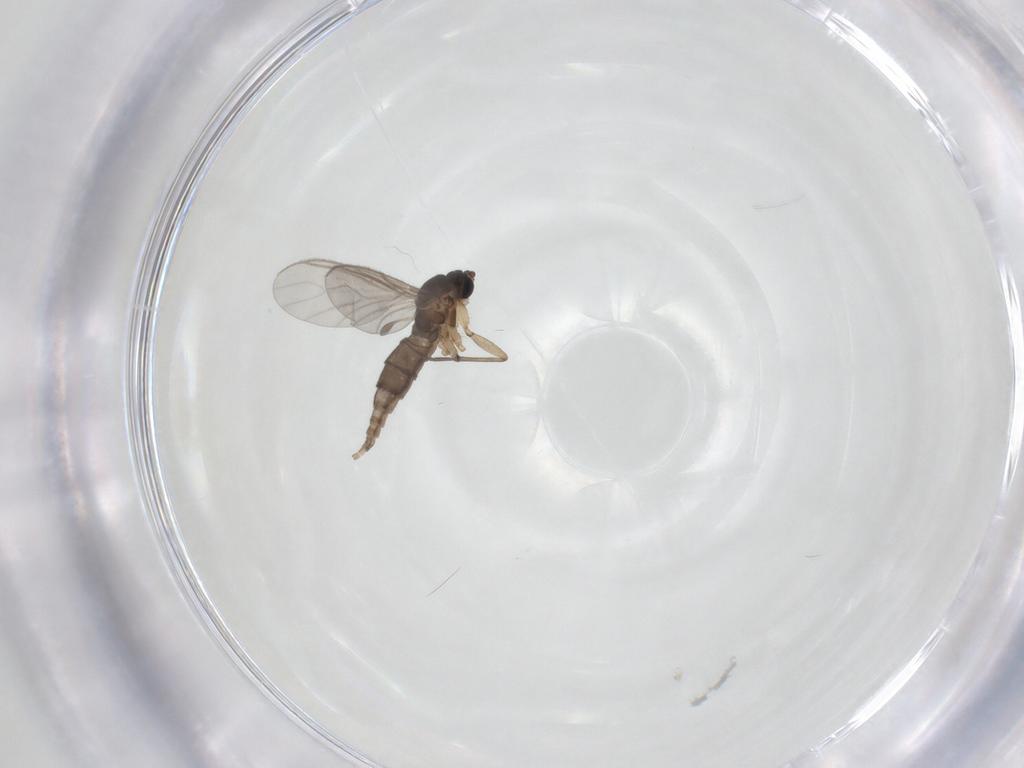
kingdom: Animalia
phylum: Arthropoda
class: Insecta
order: Diptera
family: Sciaridae
